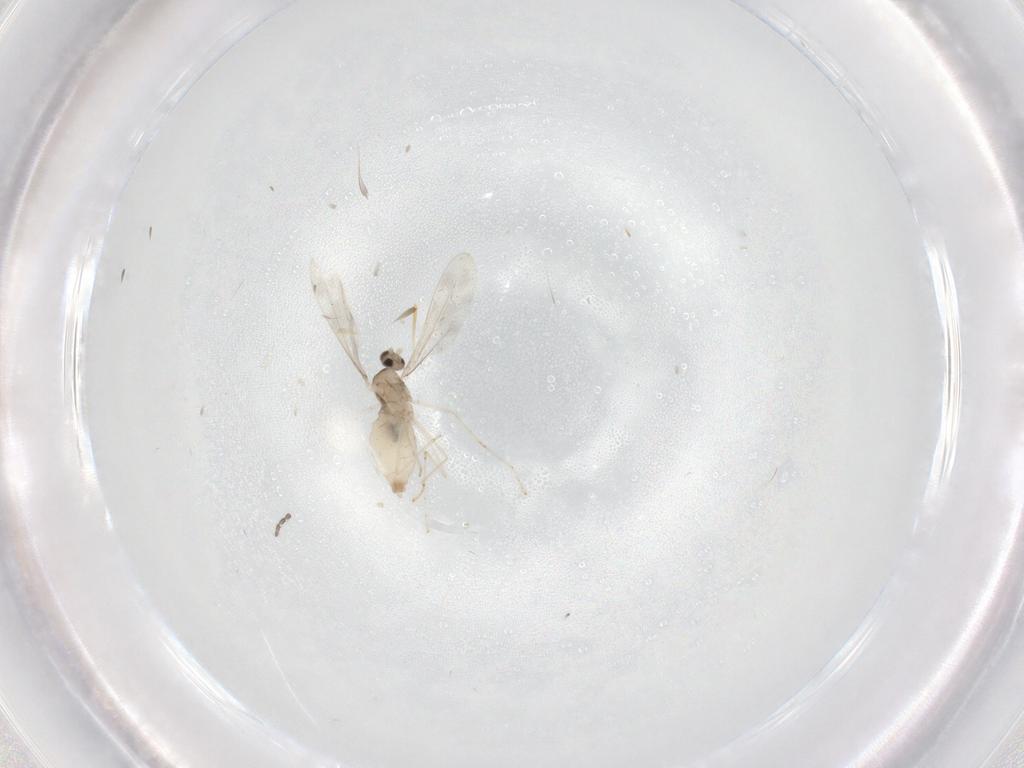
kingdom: Animalia
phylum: Arthropoda
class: Insecta
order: Diptera
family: Cecidomyiidae
